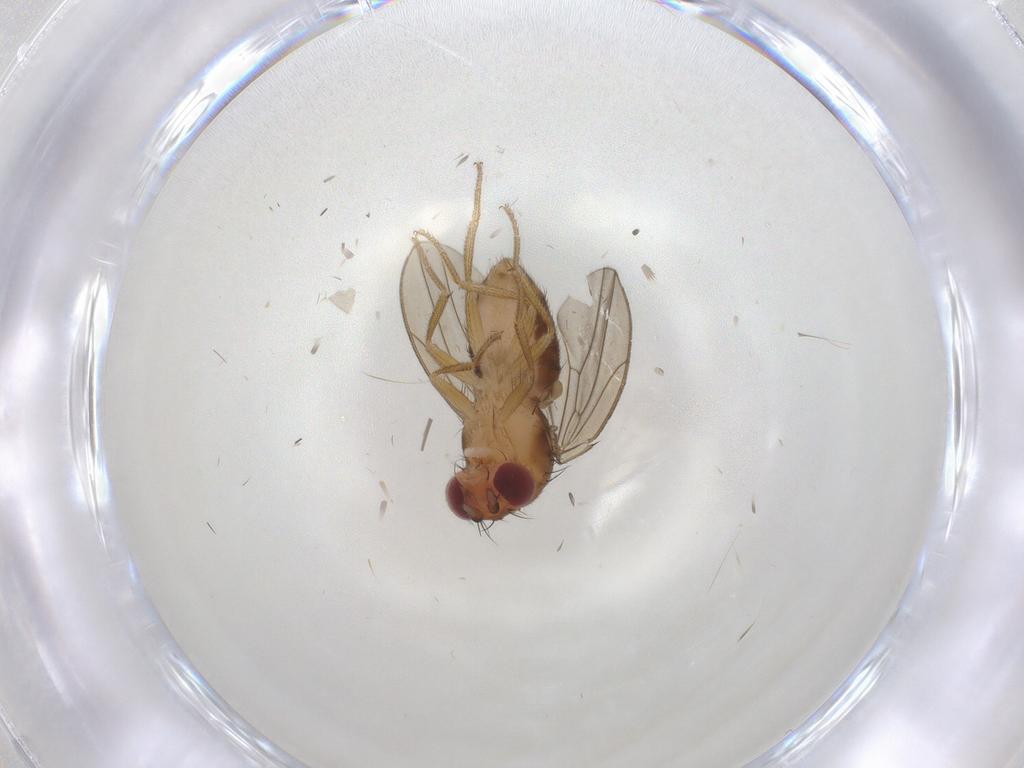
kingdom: Animalia
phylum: Arthropoda
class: Insecta
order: Diptera
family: Drosophilidae
